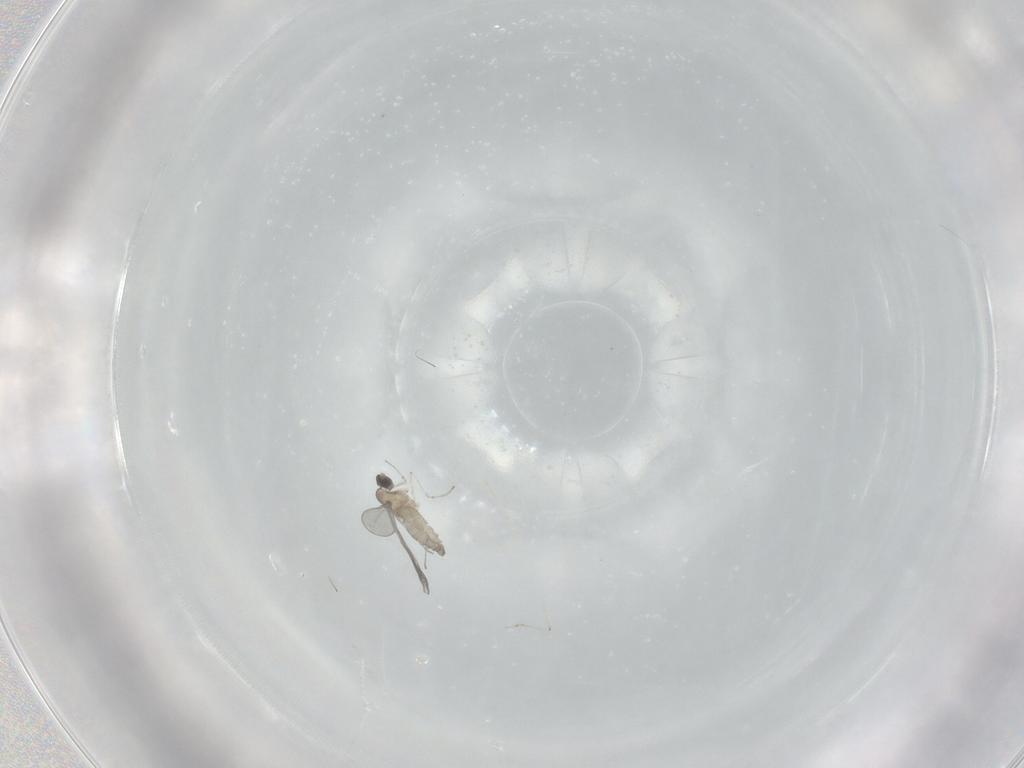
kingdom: Animalia
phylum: Arthropoda
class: Insecta
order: Diptera
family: Cecidomyiidae
